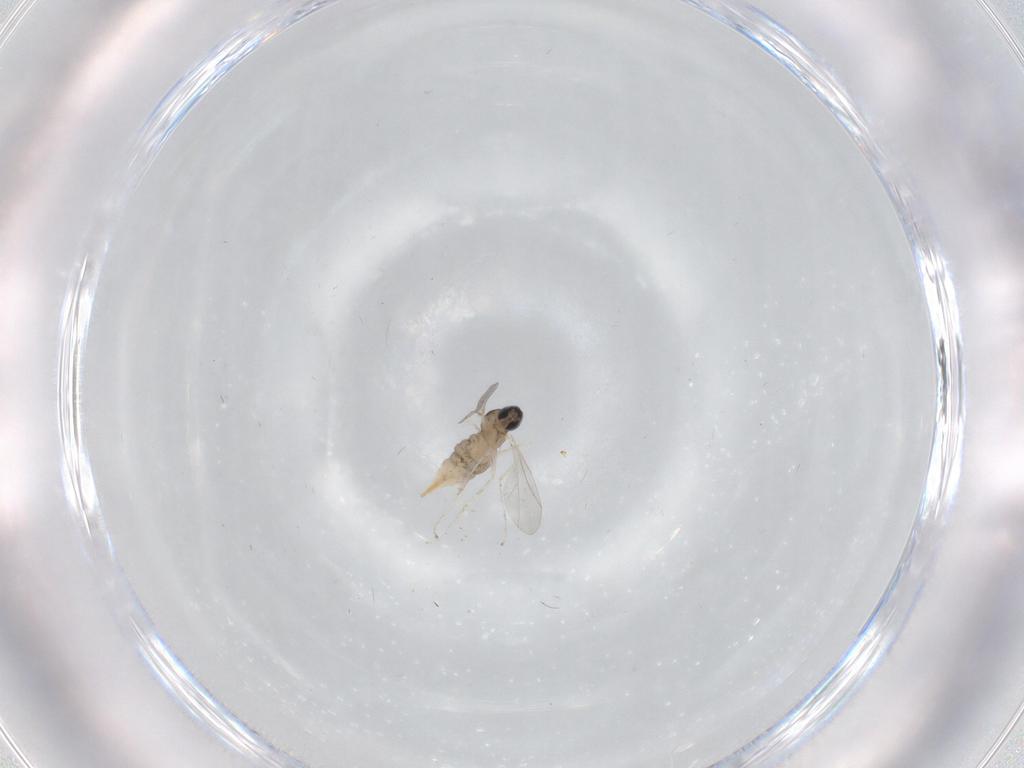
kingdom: Animalia
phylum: Arthropoda
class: Insecta
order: Diptera
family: Cecidomyiidae
